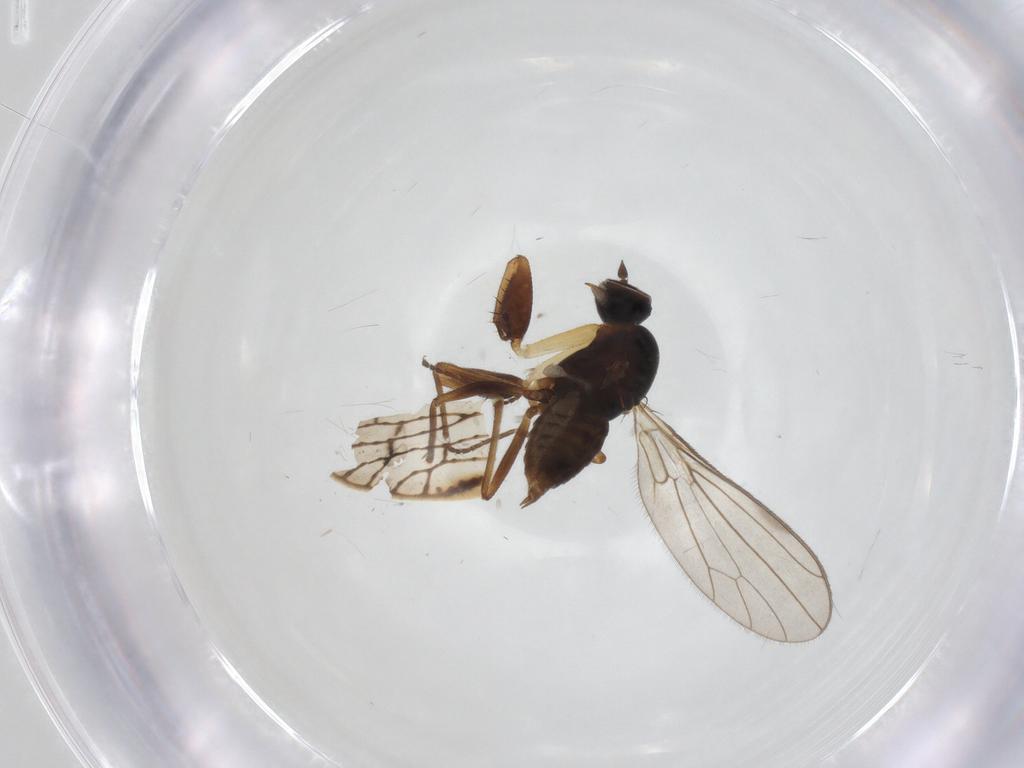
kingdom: Animalia
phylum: Arthropoda
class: Insecta
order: Diptera
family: Empididae
